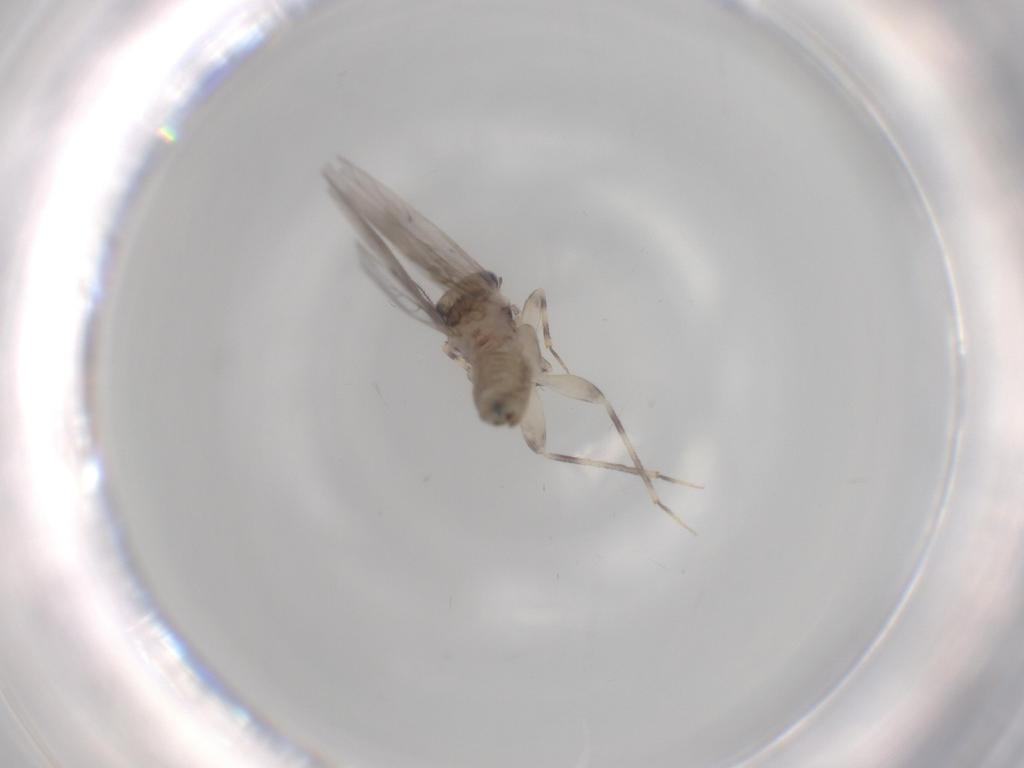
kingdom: Animalia
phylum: Arthropoda
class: Insecta
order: Psocodea
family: Lepidopsocidae
